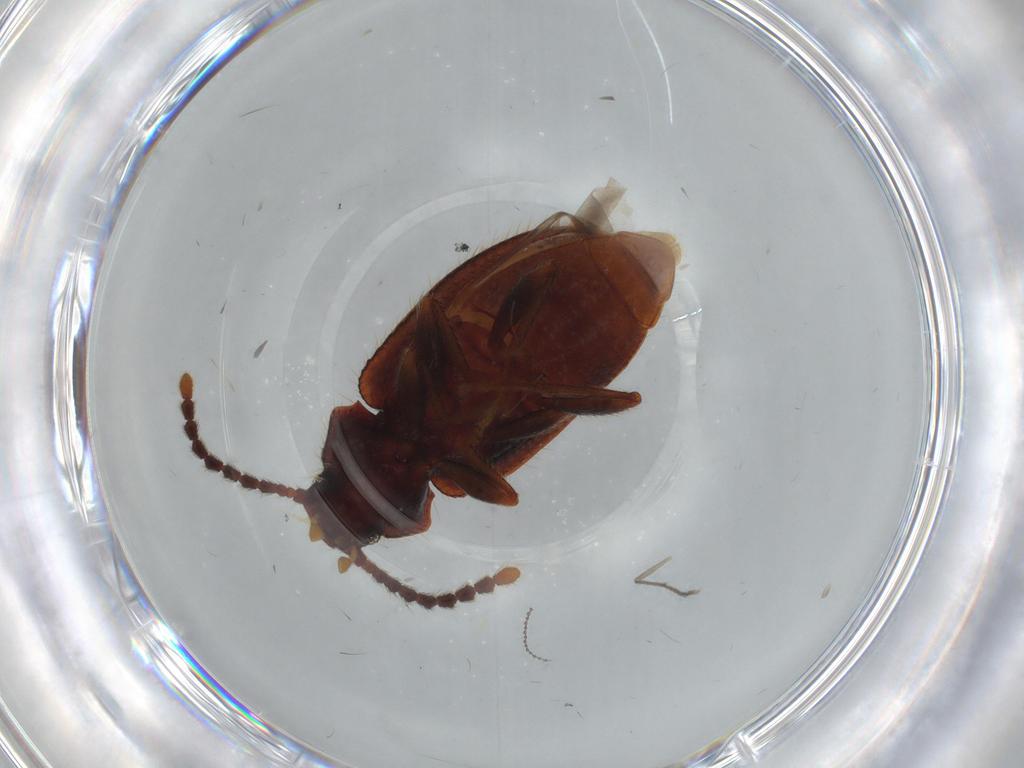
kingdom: Animalia
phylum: Arthropoda
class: Insecta
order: Coleoptera
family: Tenebrionidae
